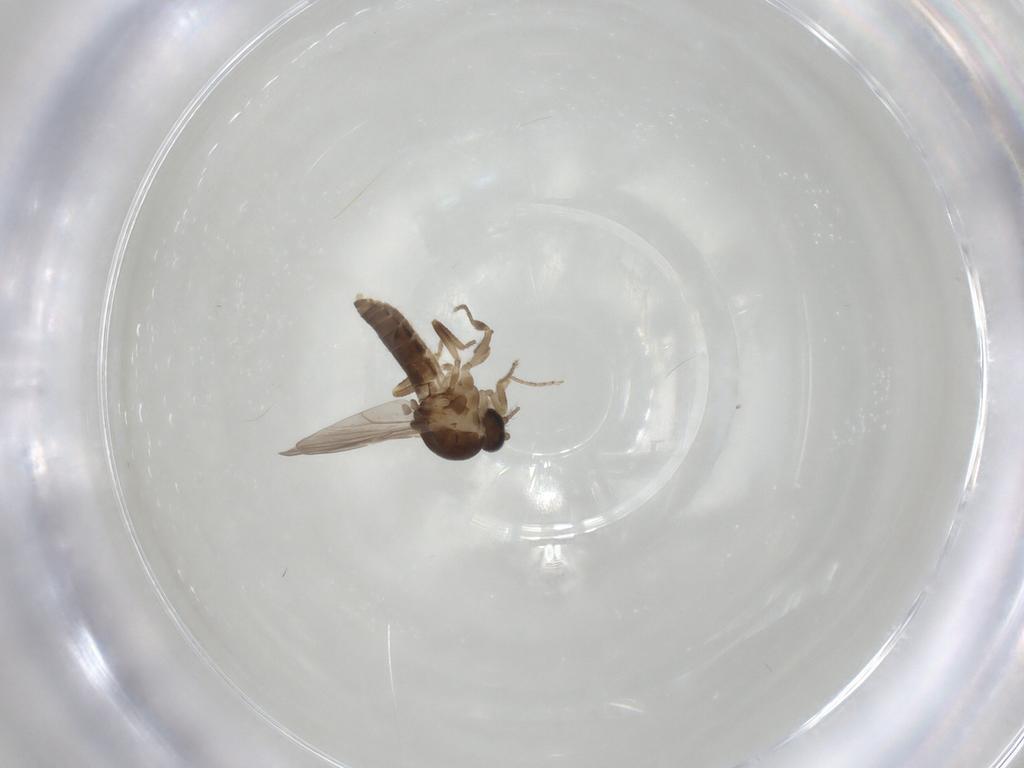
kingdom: Animalia
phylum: Arthropoda
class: Insecta
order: Diptera
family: Ceratopogonidae
